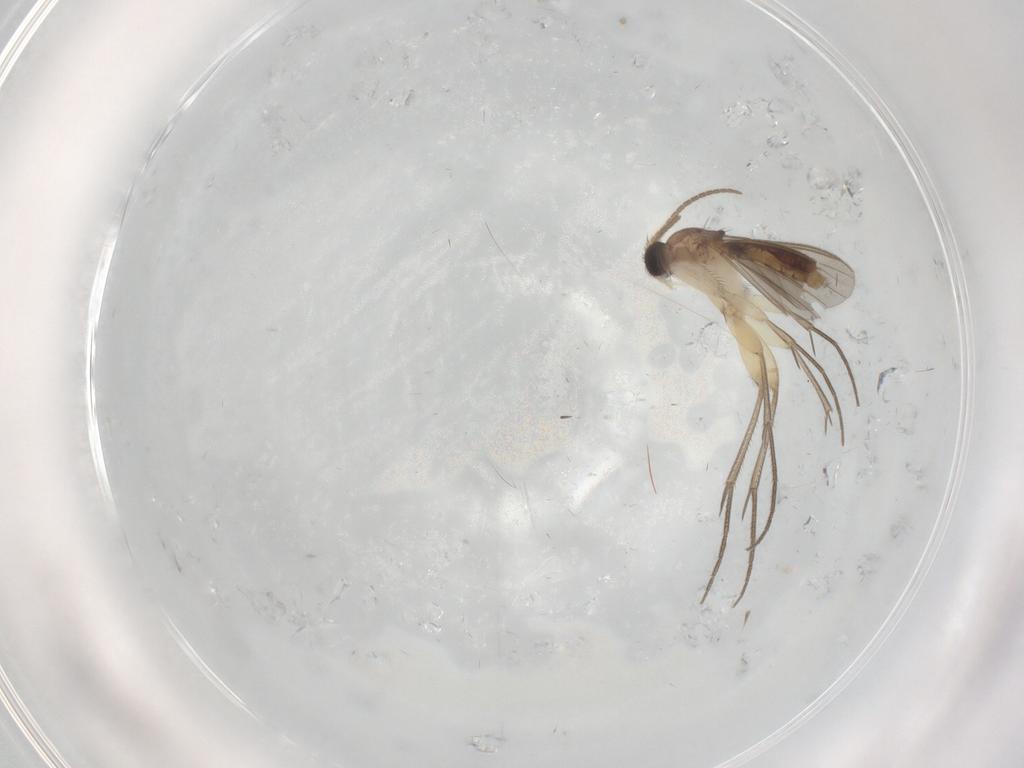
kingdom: Animalia
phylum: Arthropoda
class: Insecta
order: Diptera
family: Mycetophilidae
